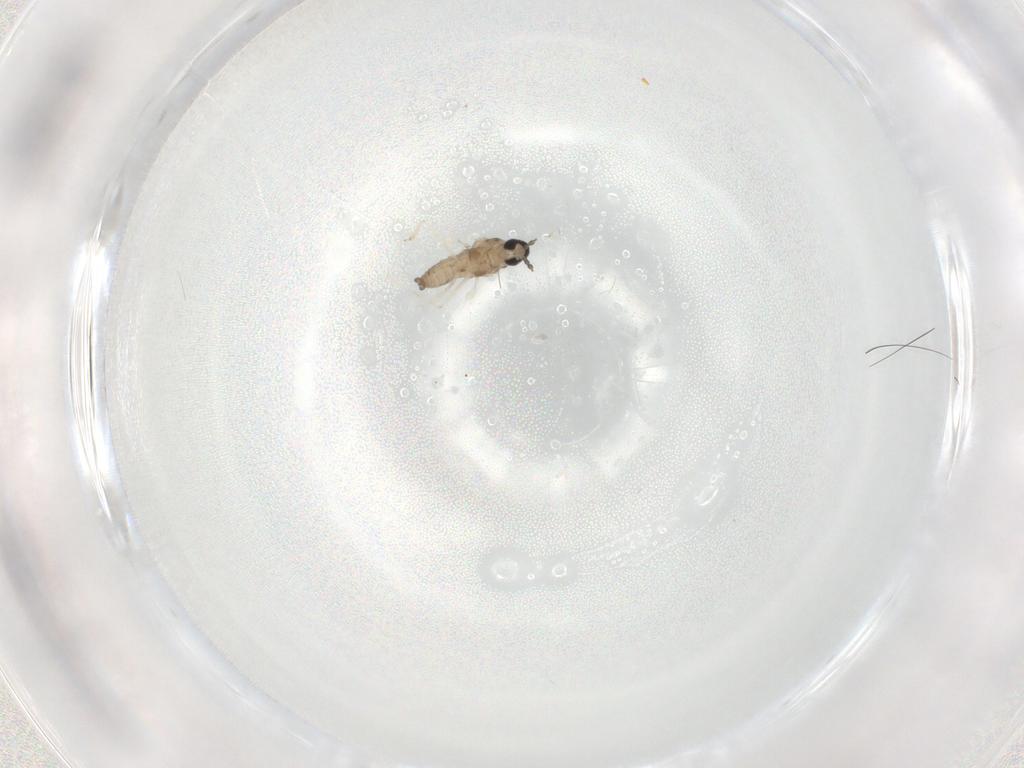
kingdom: Animalia
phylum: Arthropoda
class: Insecta
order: Diptera
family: Cecidomyiidae
